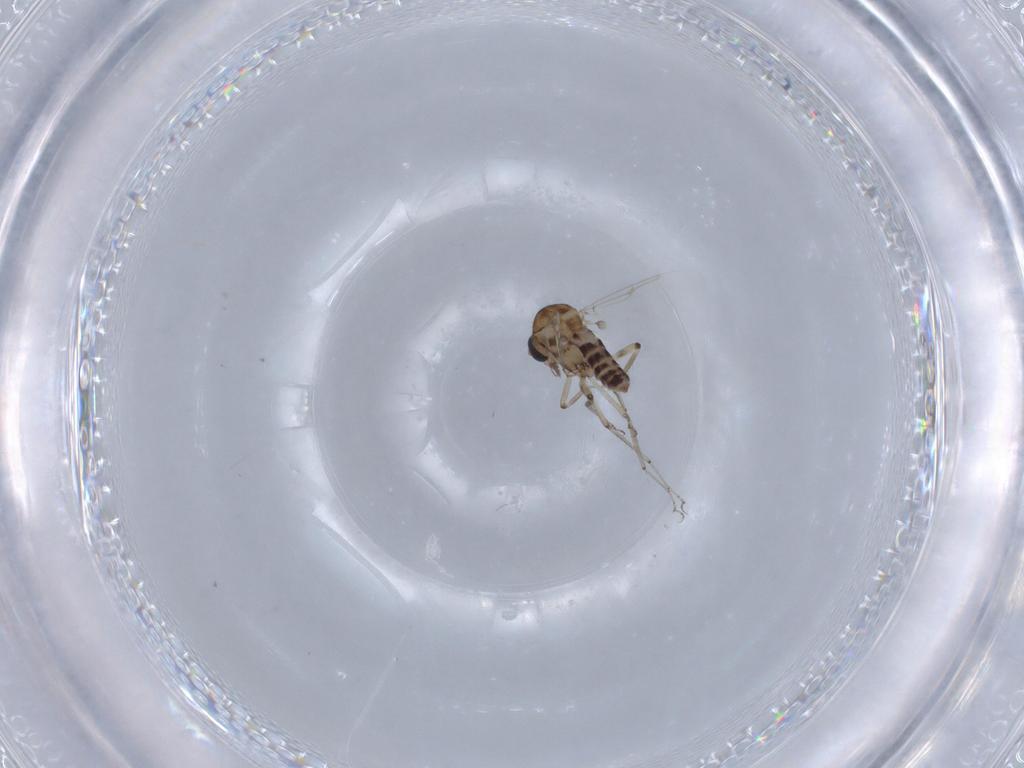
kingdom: Animalia
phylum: Arthropoda
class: Insecta
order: Diptera
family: Ceratopogonidae
